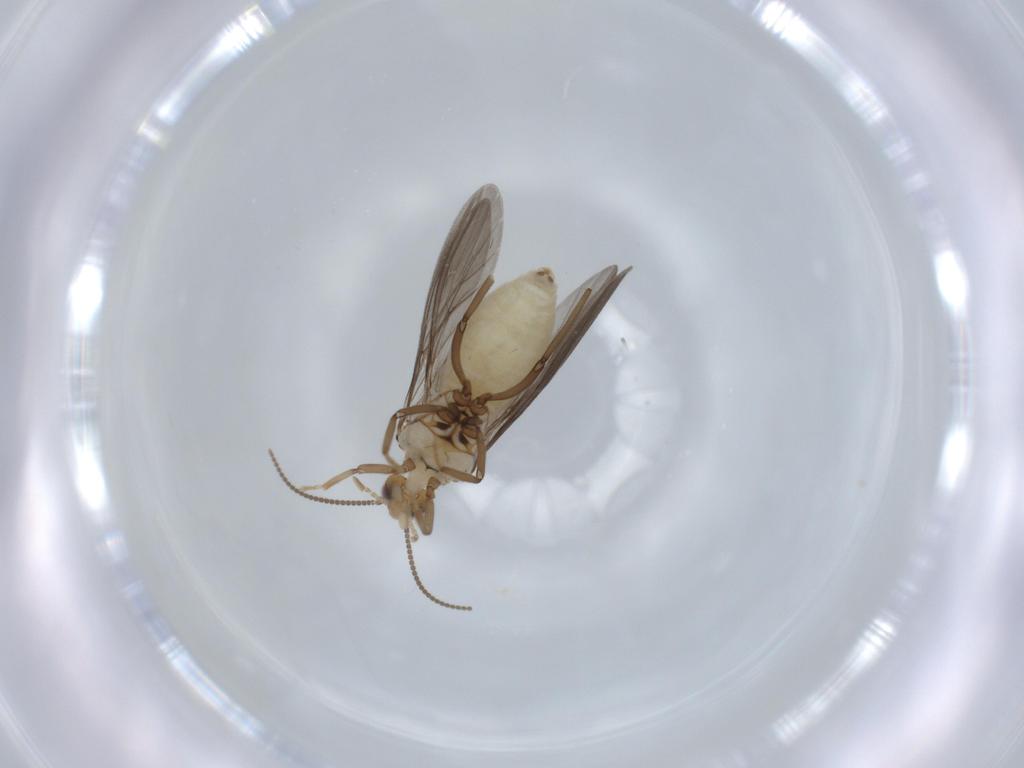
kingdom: Animalia
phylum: Arthropoda
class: Insecta
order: Neuroptera
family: Coniopterygidae
